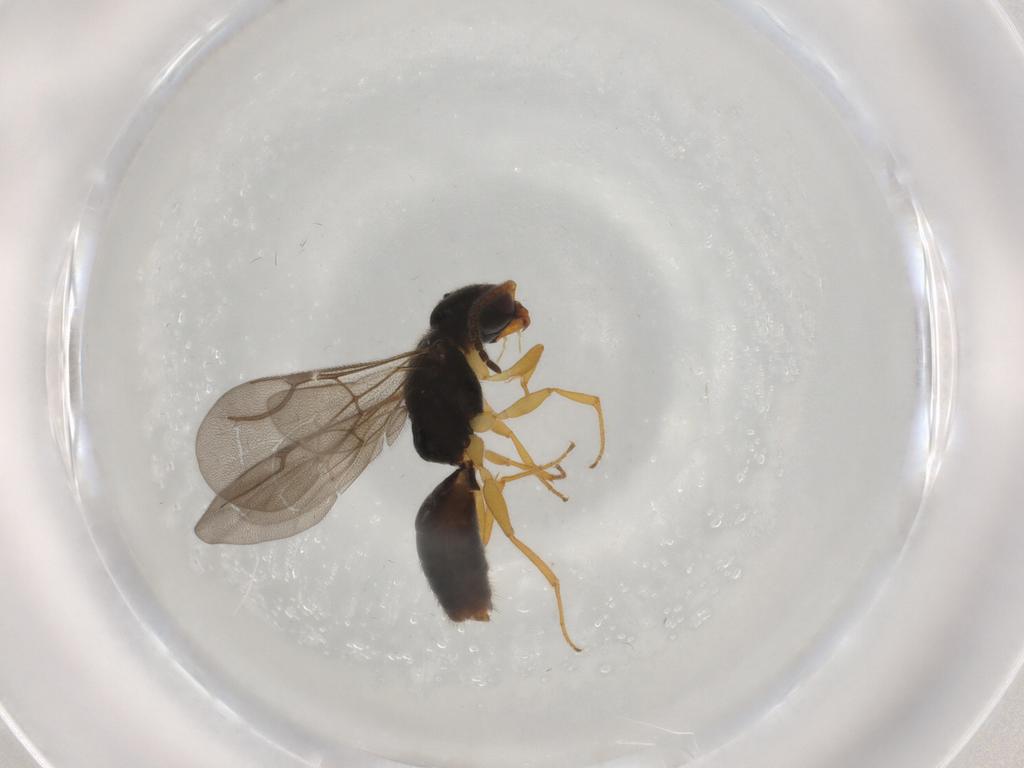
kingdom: Animalia
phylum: Arthropoda
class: Insecta
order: Hymenoptera
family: Bethylidae
